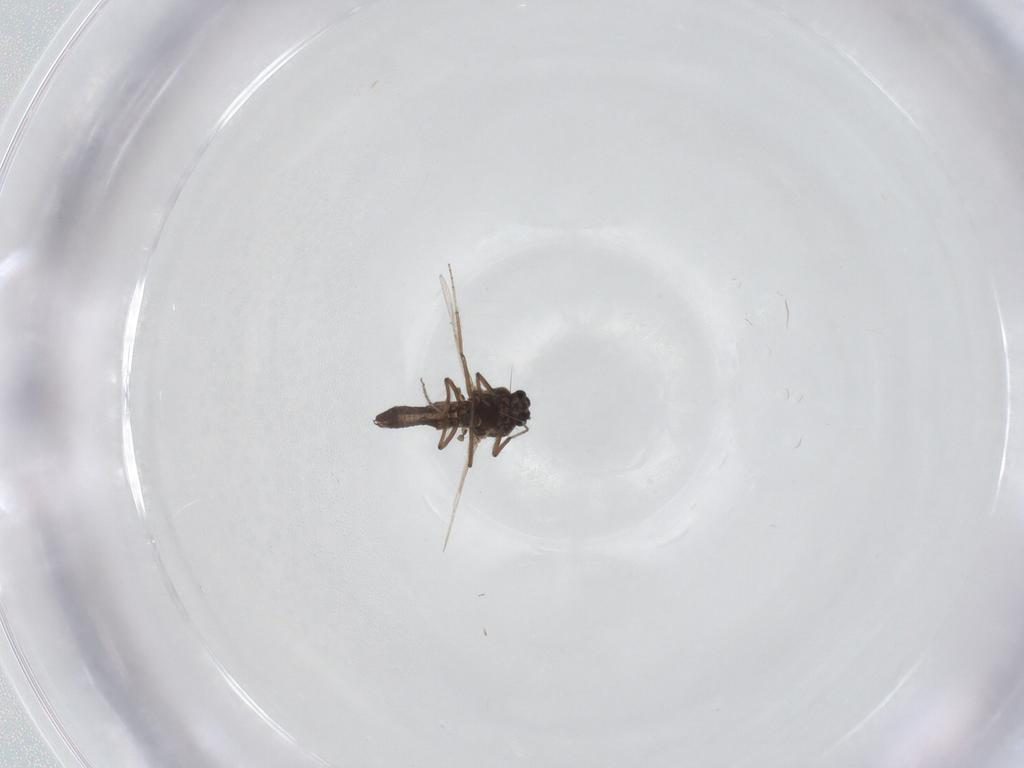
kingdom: Animalia
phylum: Arthropoda
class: Insecta
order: Diptera
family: Ceratopogonidae
